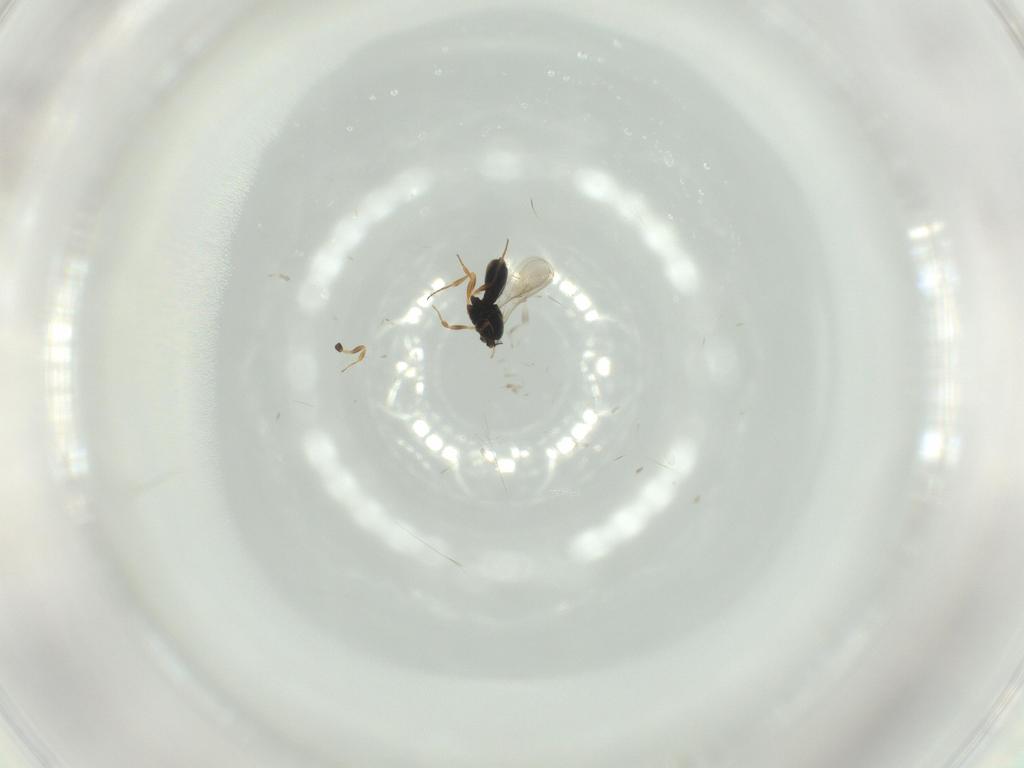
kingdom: Animalia
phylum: Arthropoda
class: Insecta
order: Hymenoptera
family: Scelionidae
